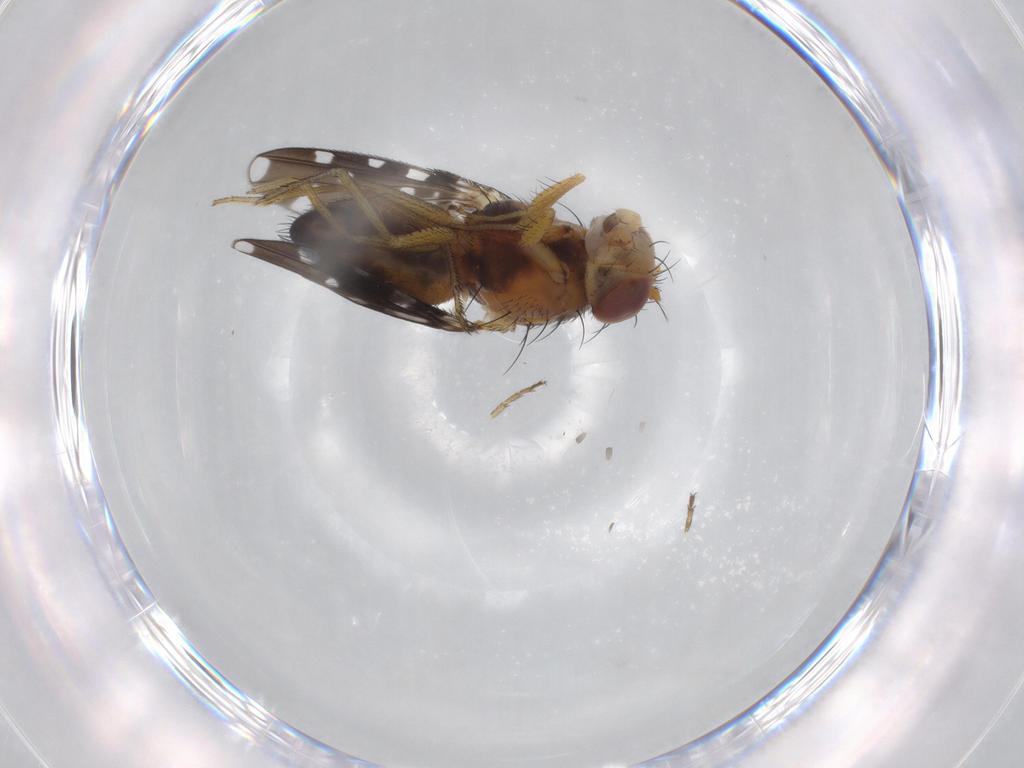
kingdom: Animalia
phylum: Arthropoda
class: Insecta
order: Diptera
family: Ephydridae
